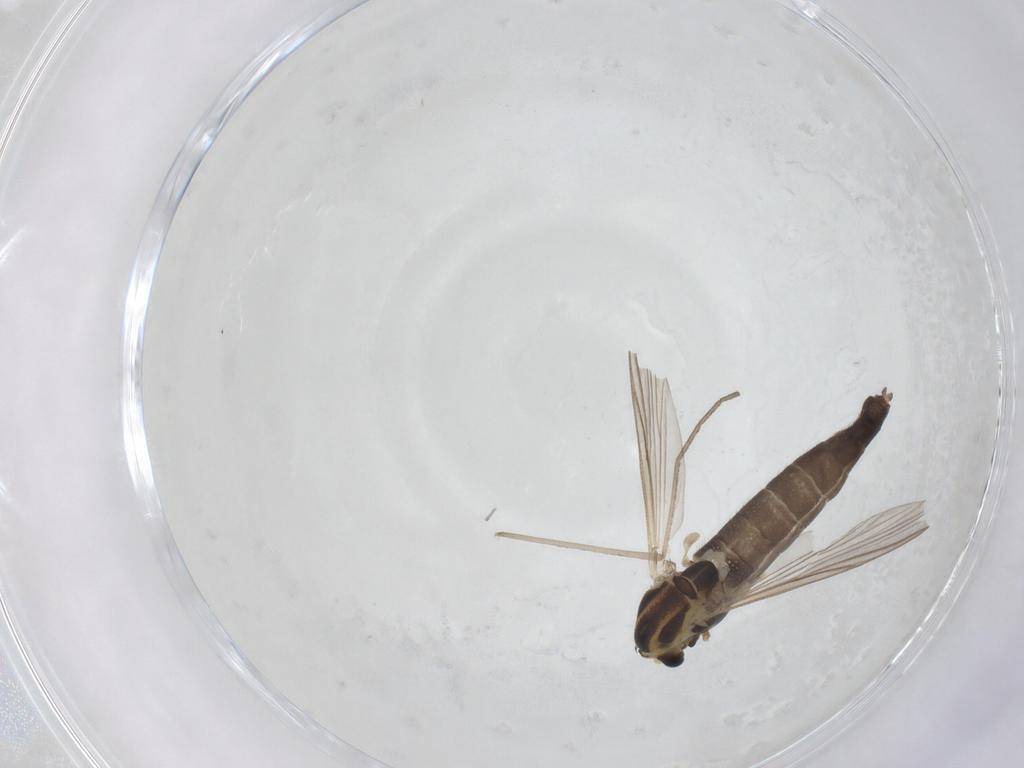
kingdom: Animalia
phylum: Arthropoda
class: Insecta
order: Diptera
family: Chironomidae
